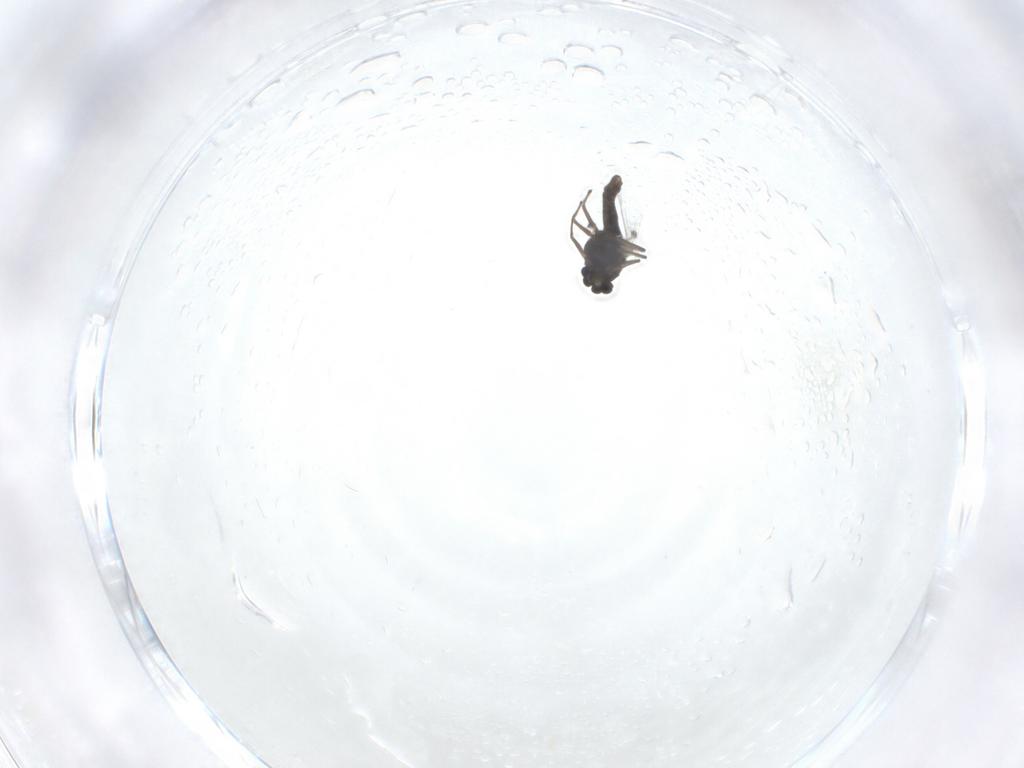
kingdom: Animalia
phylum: Arthropoda
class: Insecta
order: Diptera
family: Chironomidae
